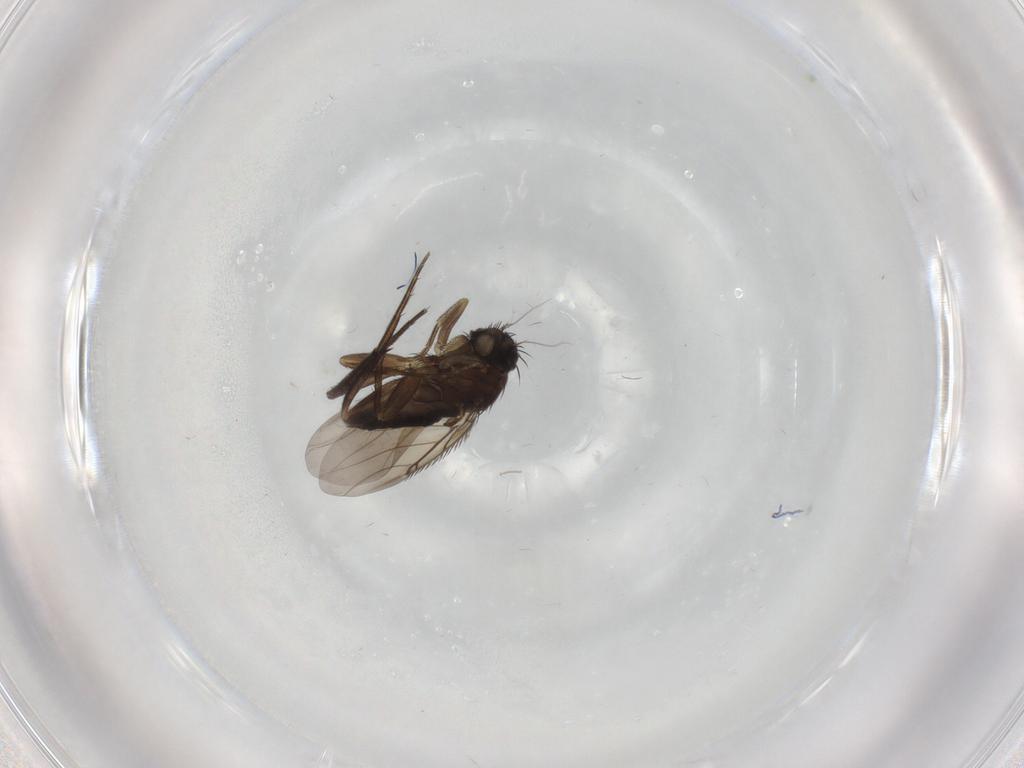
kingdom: Animalia
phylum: Arthropoda
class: Insecta
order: Diptera
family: Phoridae
